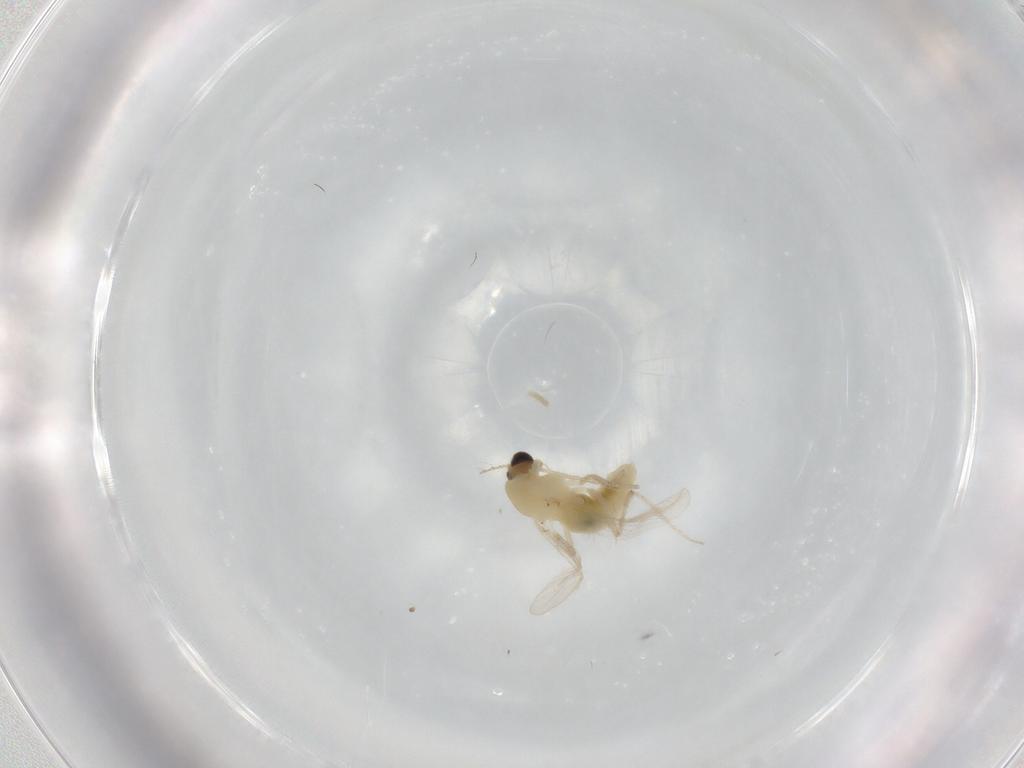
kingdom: Animalia
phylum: Arthropoda
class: Insecta
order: Diptera
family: Chironomidae
